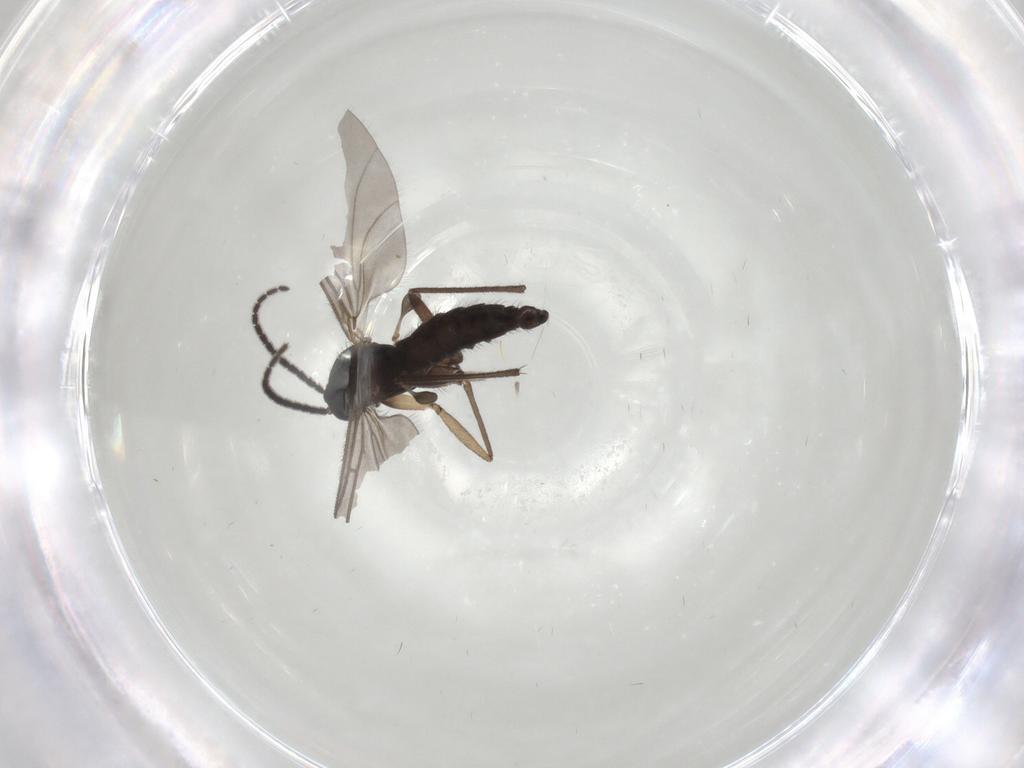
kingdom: Animalia
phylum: Arthropoda
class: Insecta
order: Diptera
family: Sciaridae
